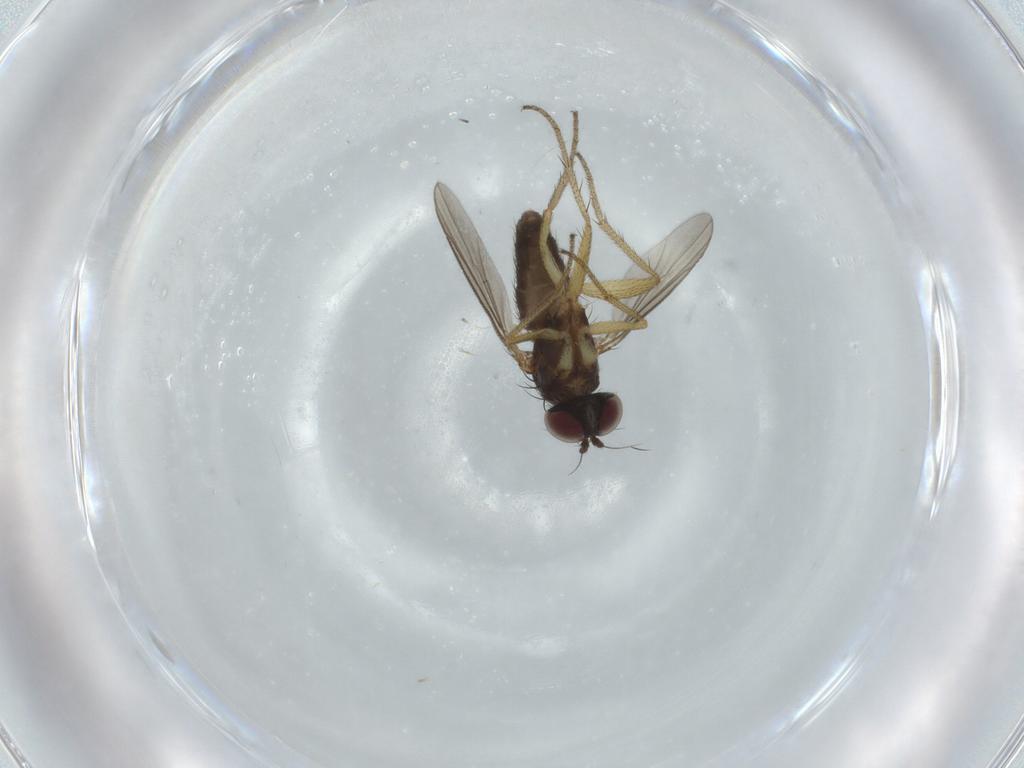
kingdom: Animalia
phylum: Arthropoda
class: Insecta
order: Diptera
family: Dolichopodidae
